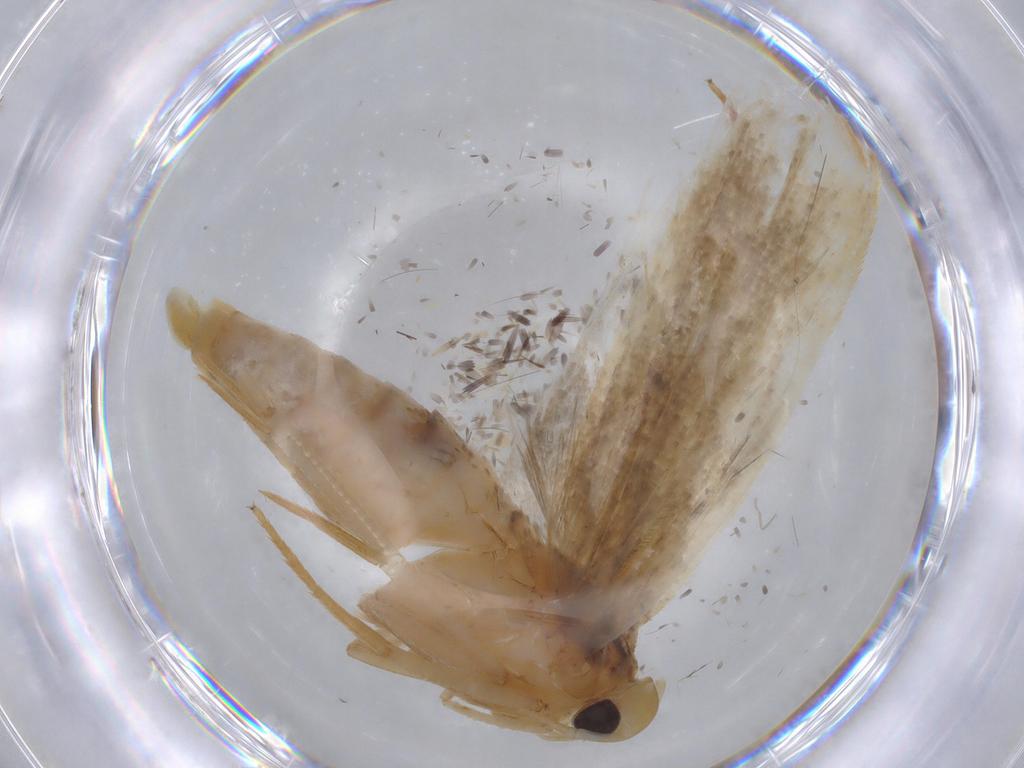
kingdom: Animalia
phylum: Arthropoda
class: Insecta
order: Lepidoptera
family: Gelechiidae
